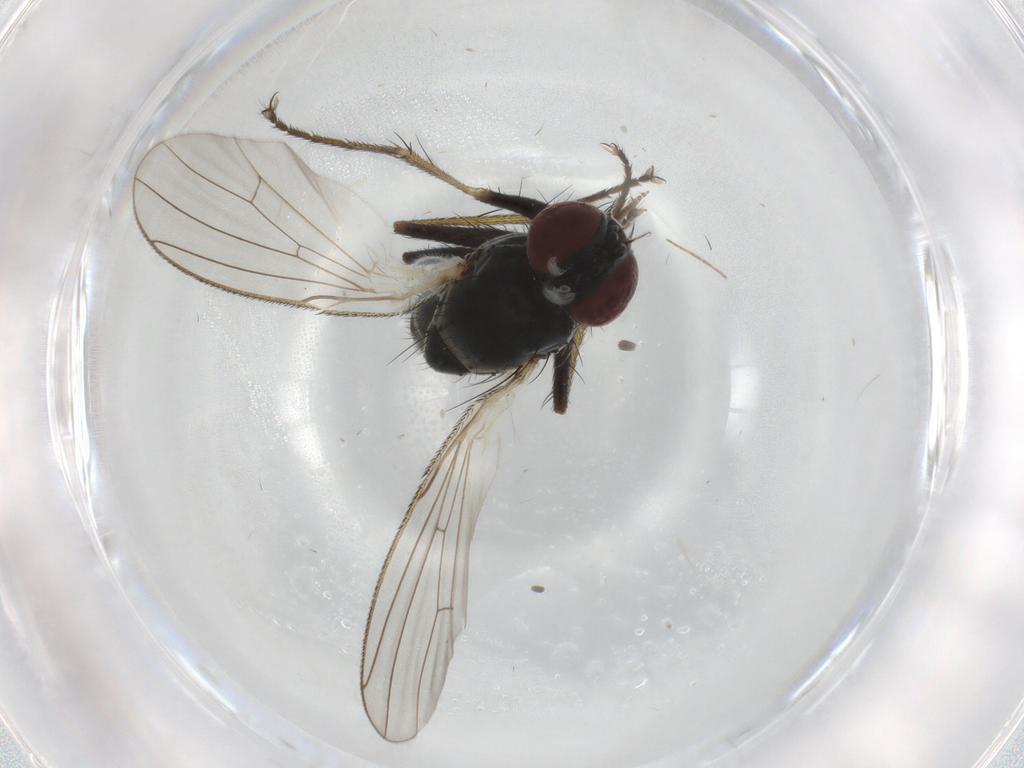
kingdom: Animalia
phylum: Arthropoda
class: Insecta
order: Diptera
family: Muscidae
